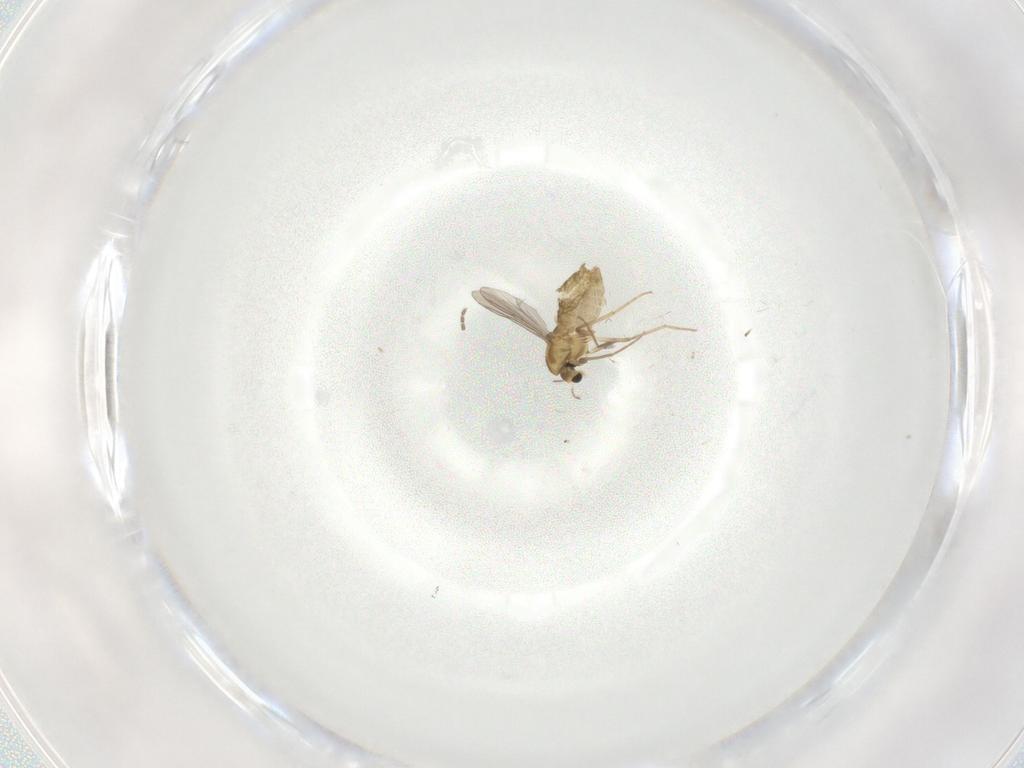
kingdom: Animalia
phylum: Arthropoda
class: Insecta
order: Diptera
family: Chironomidae
